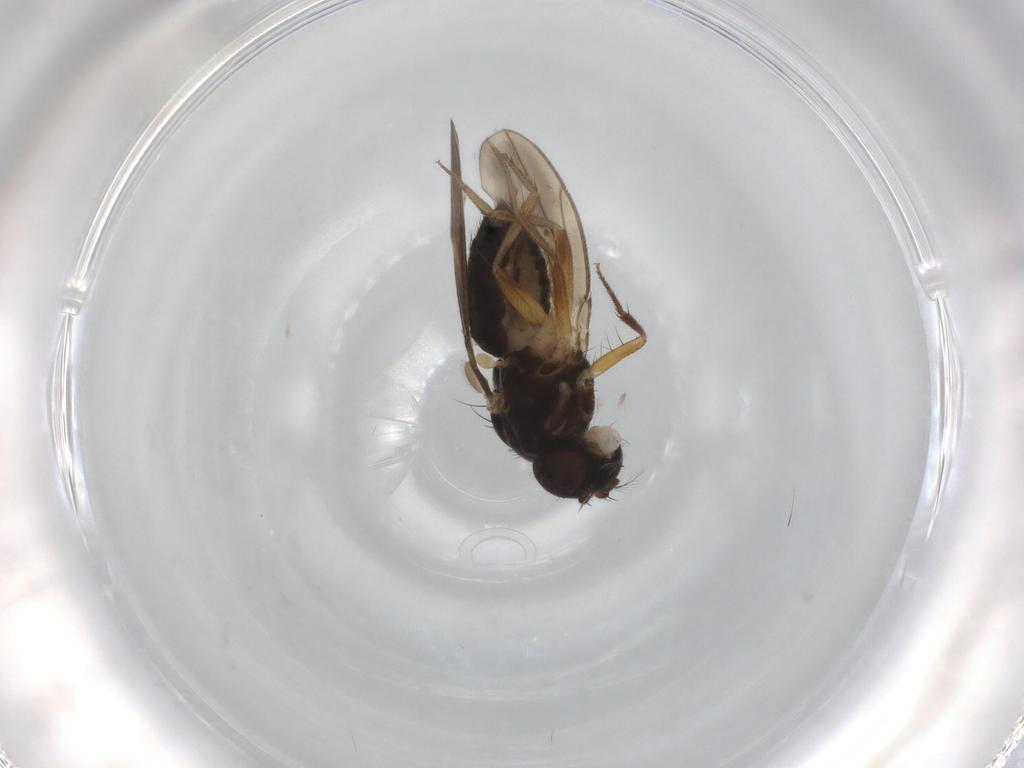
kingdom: Animalia
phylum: Arthropoda
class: Insecta
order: Diptera
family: Drosophilidae
